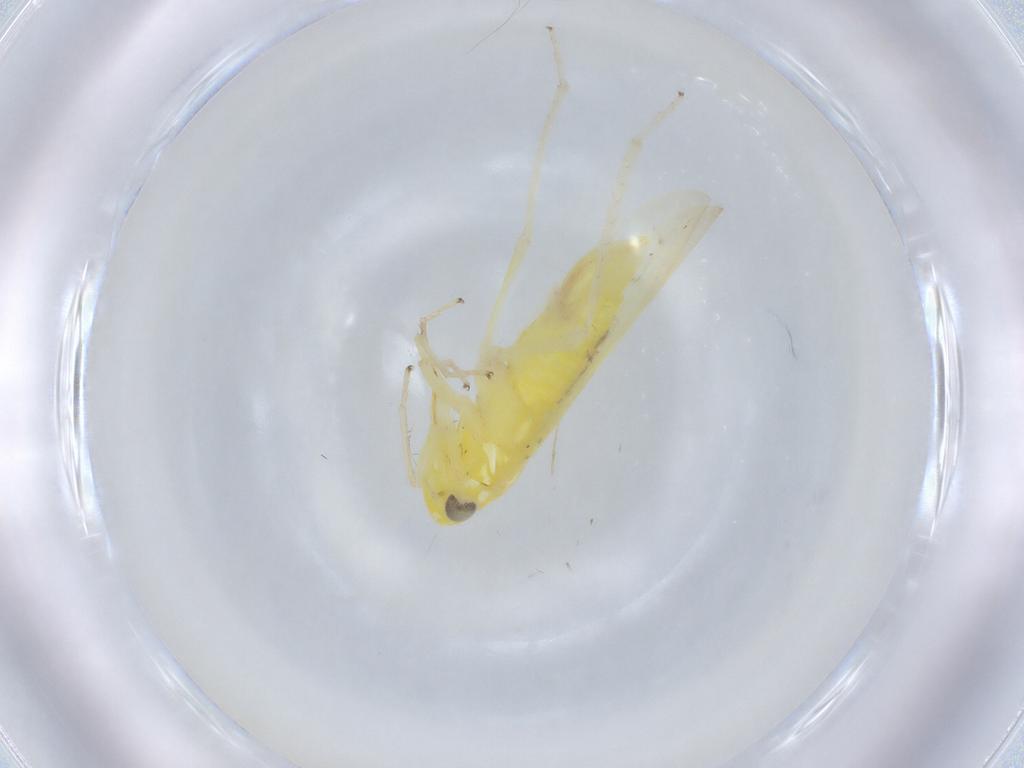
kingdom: Animalia
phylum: Arthropoda
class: Insecta
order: Hemiptera
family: Cicadellidae
